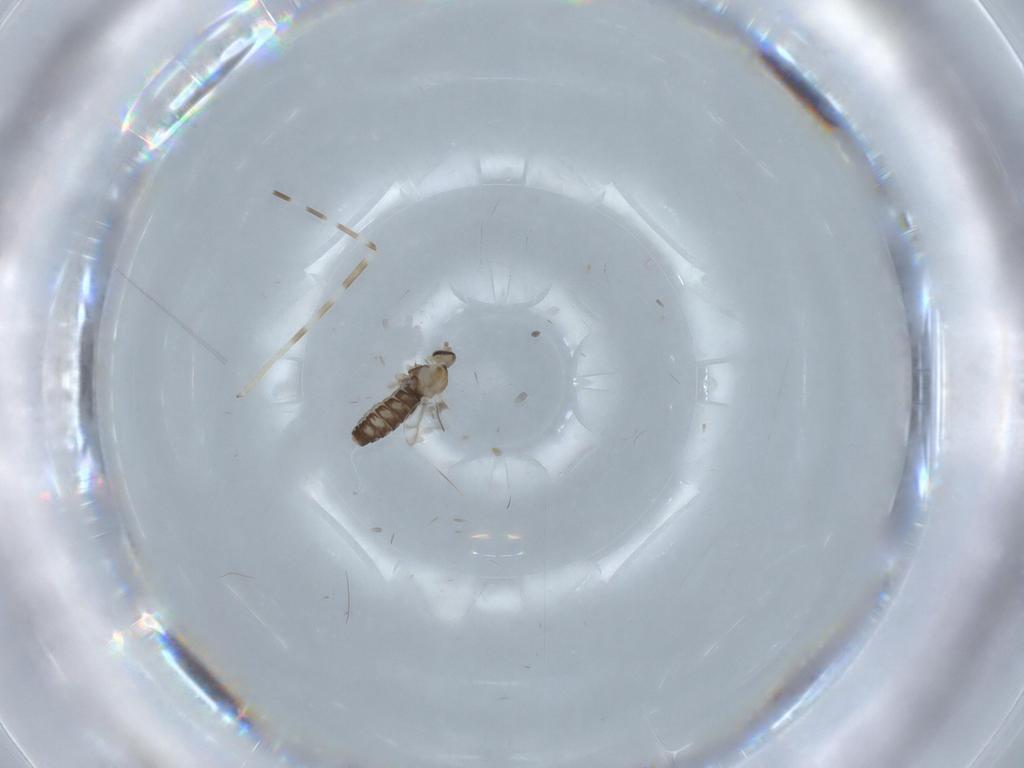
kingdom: Animalia
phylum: Arthropoda
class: Insecta
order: Diptera
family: Limoniidae
